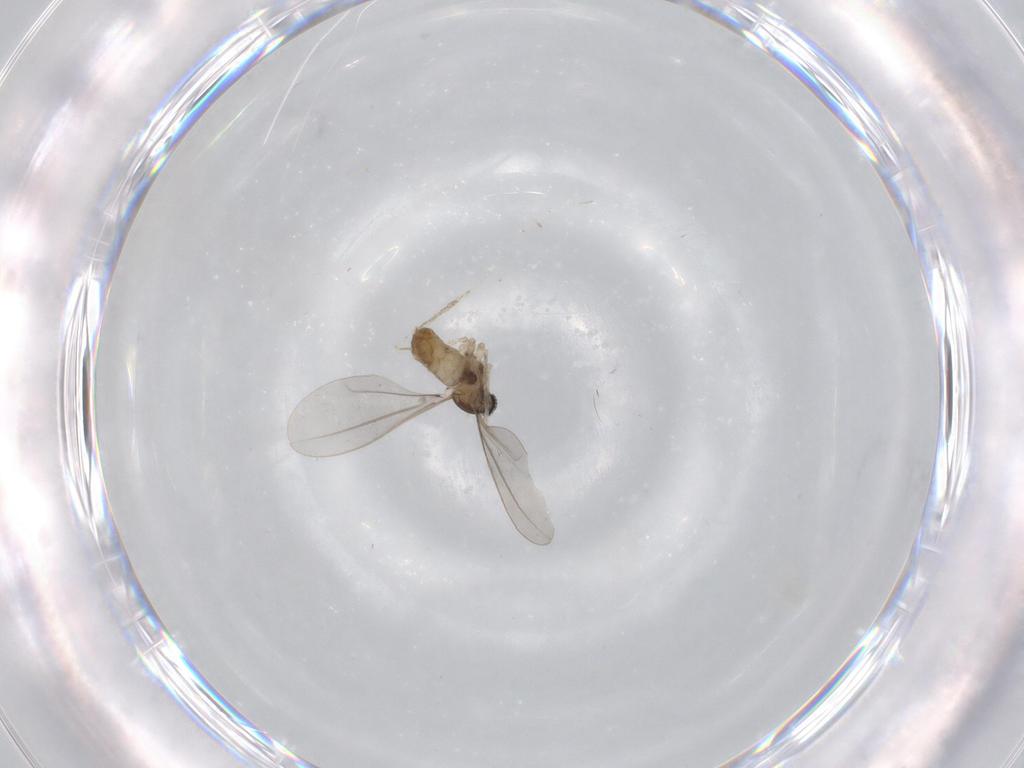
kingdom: Animalia
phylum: Arthropoda
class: Insecta
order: Diptera
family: Cecidomyiidae
